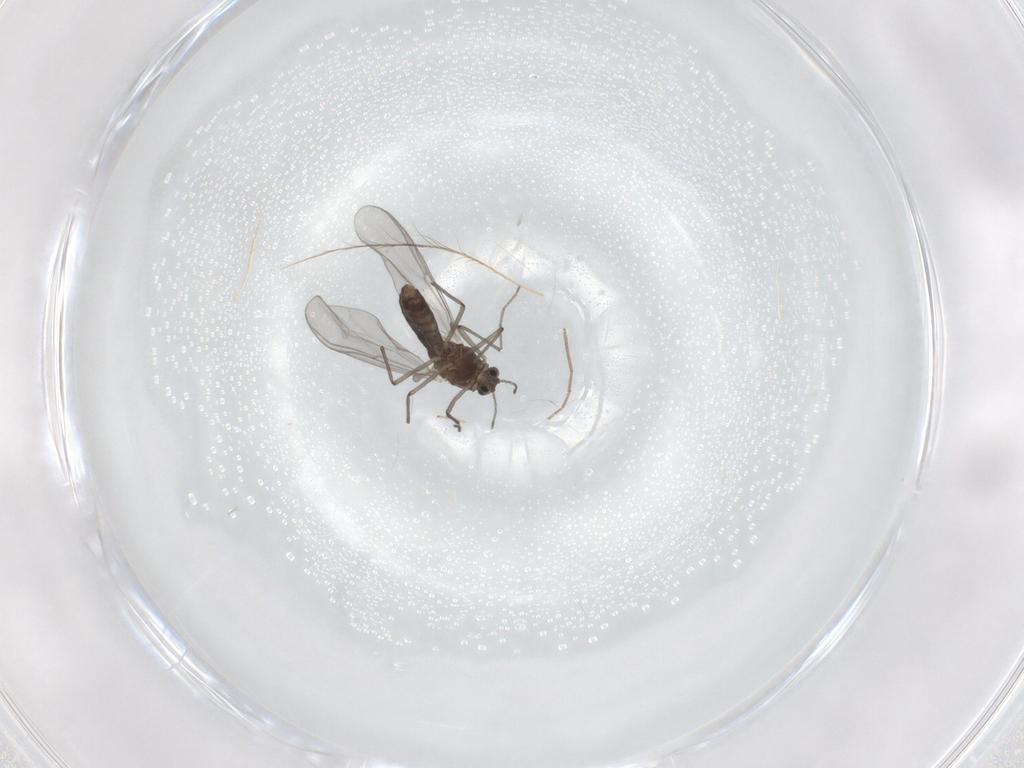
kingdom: Animalia
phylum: Arthropoda
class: Insecta
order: Diptera
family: Chironomidae
